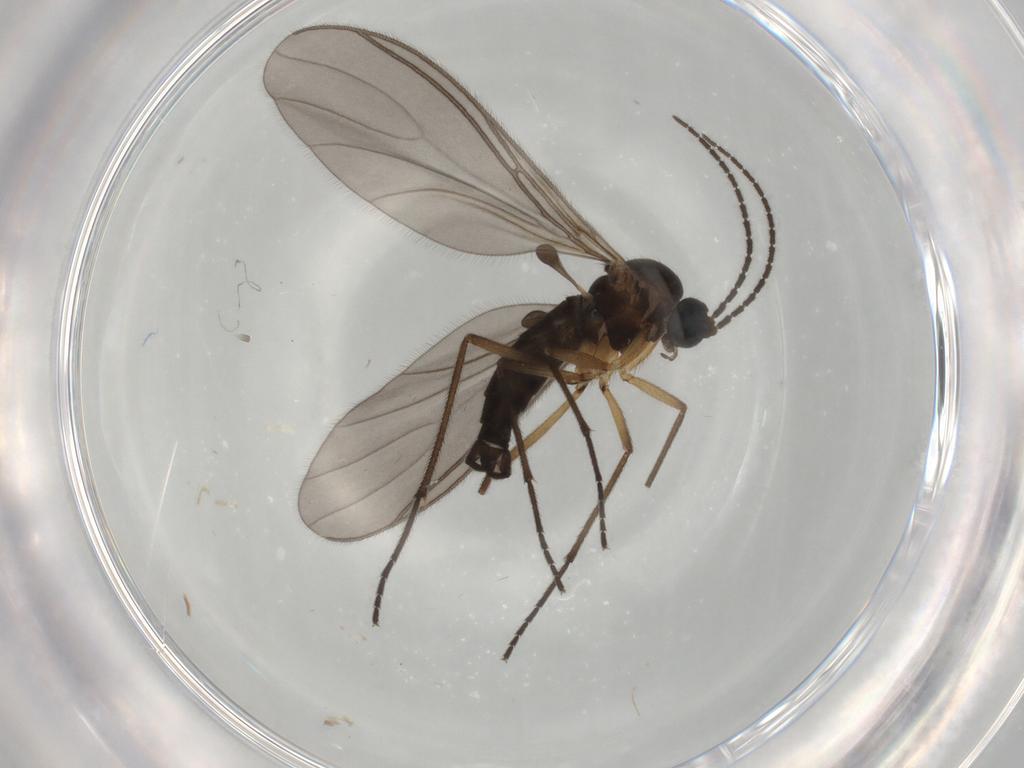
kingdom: Animalia
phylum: Arthropoda
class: Insecta
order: Diptera
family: Sciaridae
